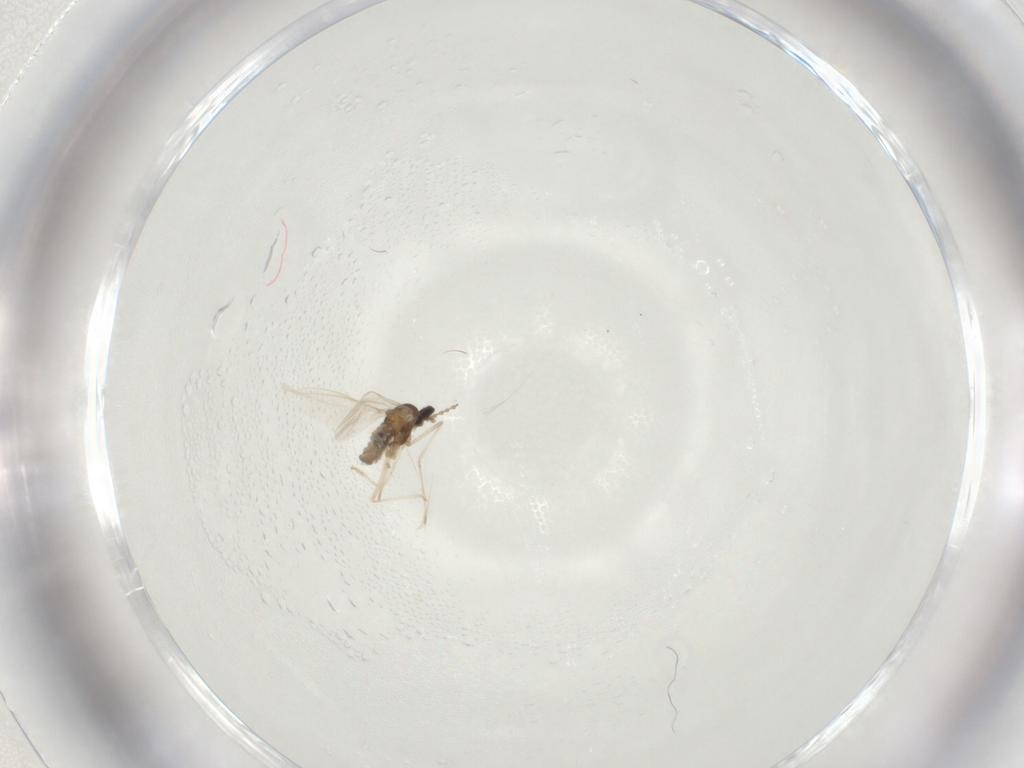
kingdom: Animalia
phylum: Arthropoda
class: Insecta
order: Diptera
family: Cecidomyiidae
